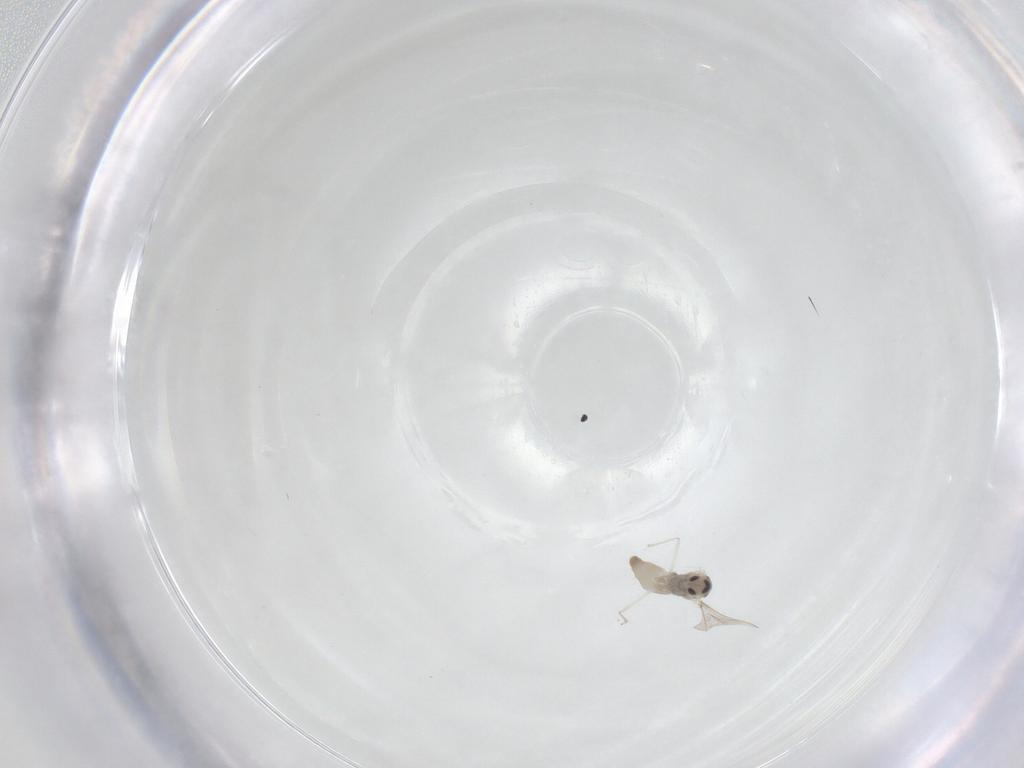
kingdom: Animalia
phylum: Arthropoda
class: Insecta
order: Diptera
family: Cecidomyiidae
